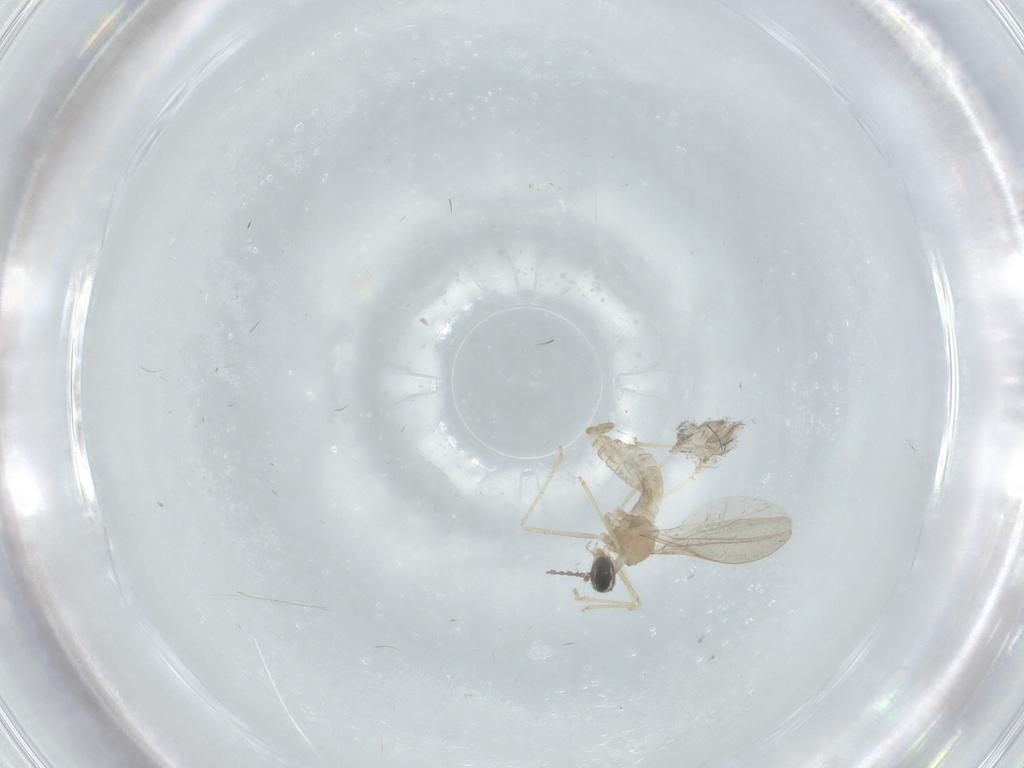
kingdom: Animalia
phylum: Arthropoda
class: Insecta
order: Diptera
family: Cecidomyiidae
